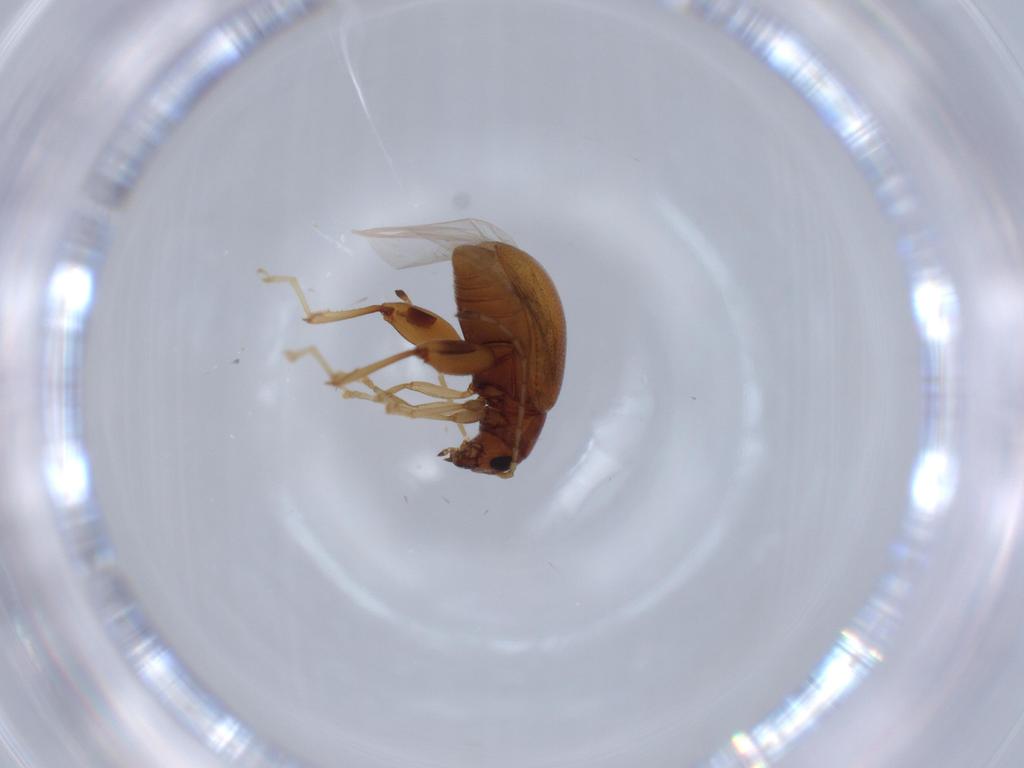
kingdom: Animalia
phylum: Arthropoda
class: Insecta
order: Coleoptera
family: Chrysomelidae
